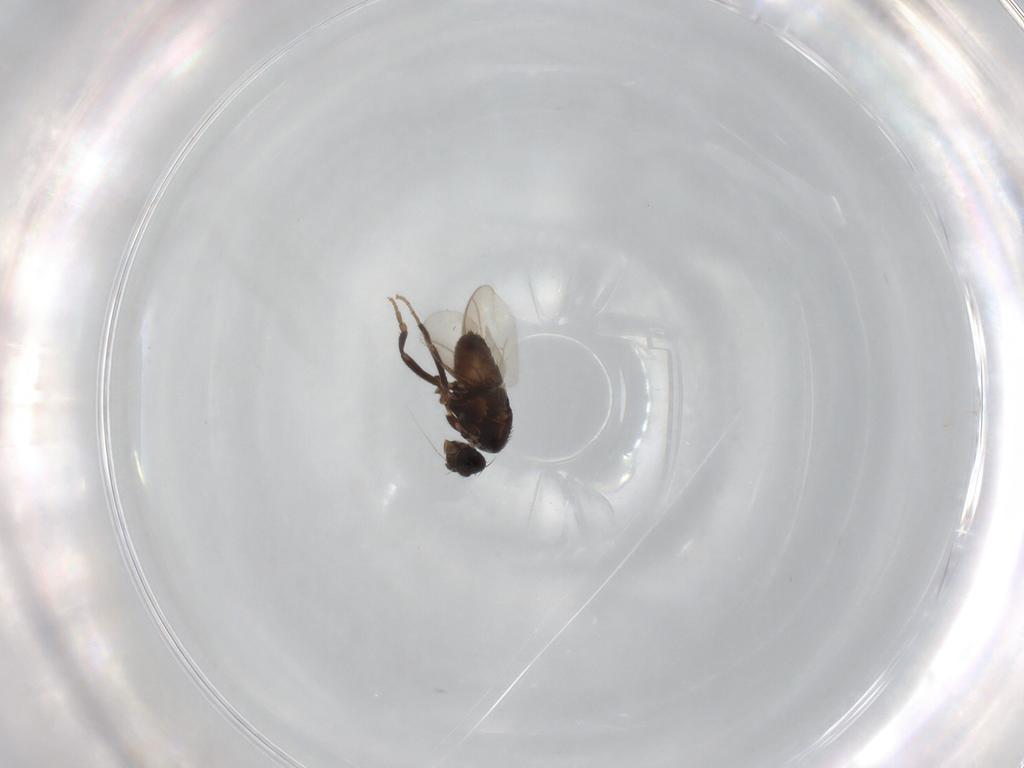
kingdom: Animalia
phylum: Arthropoda
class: Insecta
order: Diptera
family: Sphaeroceridae
